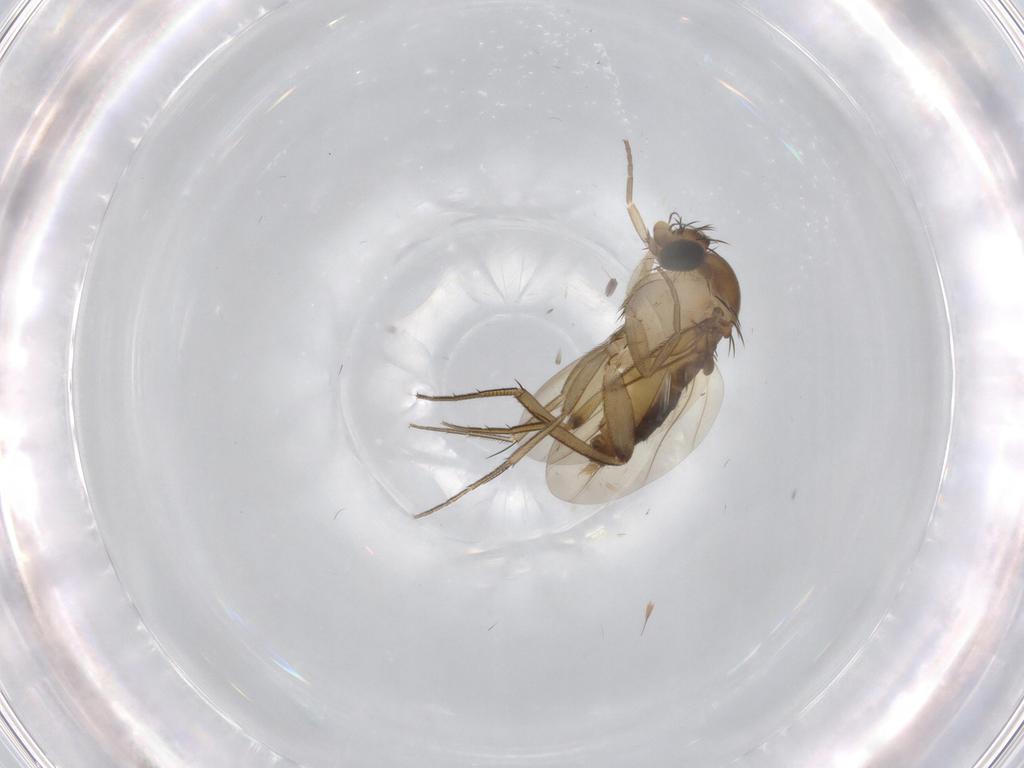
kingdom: Animalia
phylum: Arthropoda
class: Insecta
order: Diptera
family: Phoridae
